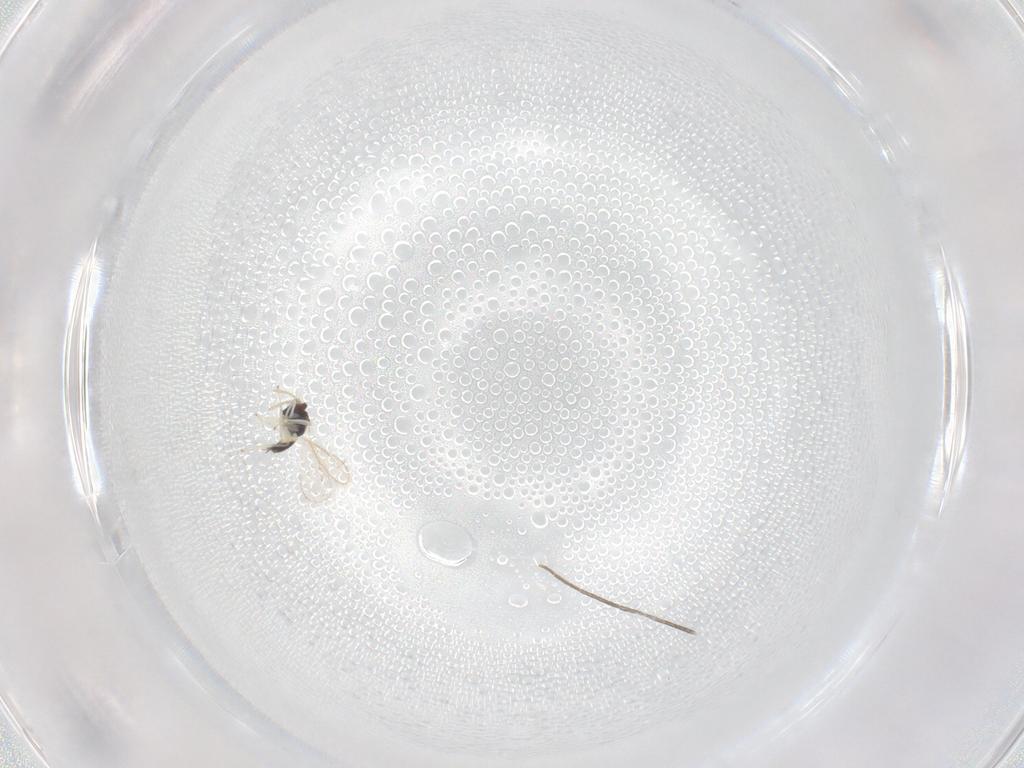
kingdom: Animalia
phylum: Arthropoda
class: Insecta
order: Hymenoptera
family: Eulophidae
